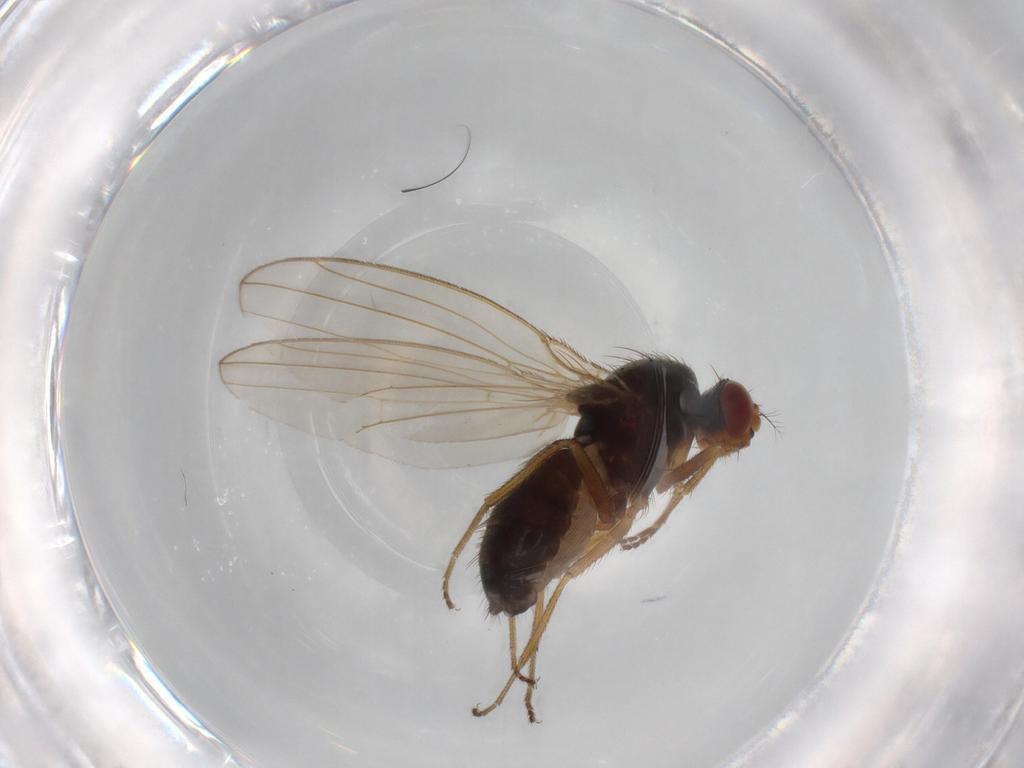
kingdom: Animalia
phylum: Arthropoda
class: Insecta
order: Diptera
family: Drosophilidae
